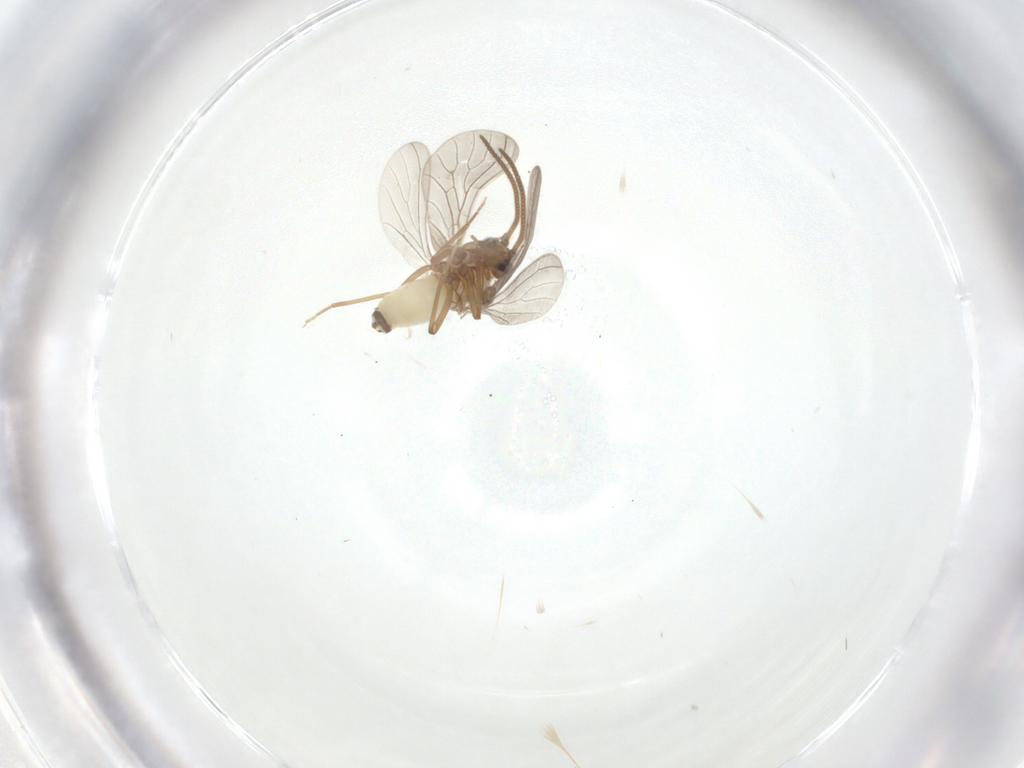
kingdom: Animalia
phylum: Arthropoda
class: Insecta
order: Neuroptera
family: Coniopterygidae
